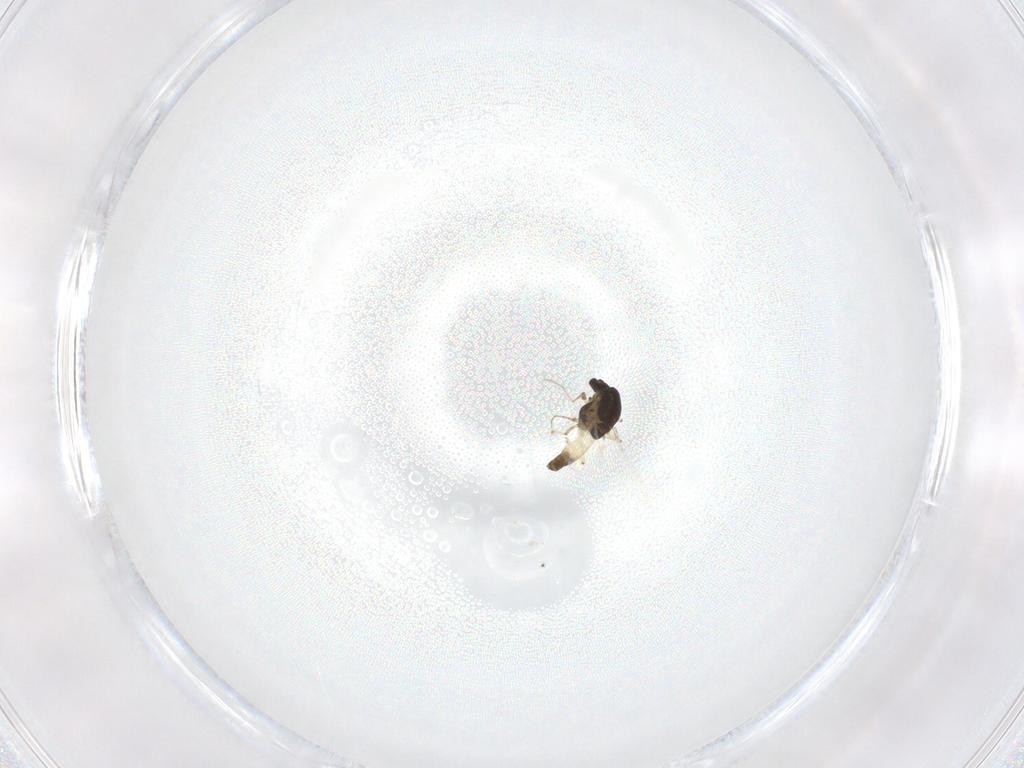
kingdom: Animalia
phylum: Arthropoda
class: Insecta
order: Diptera
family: Chironomidae
